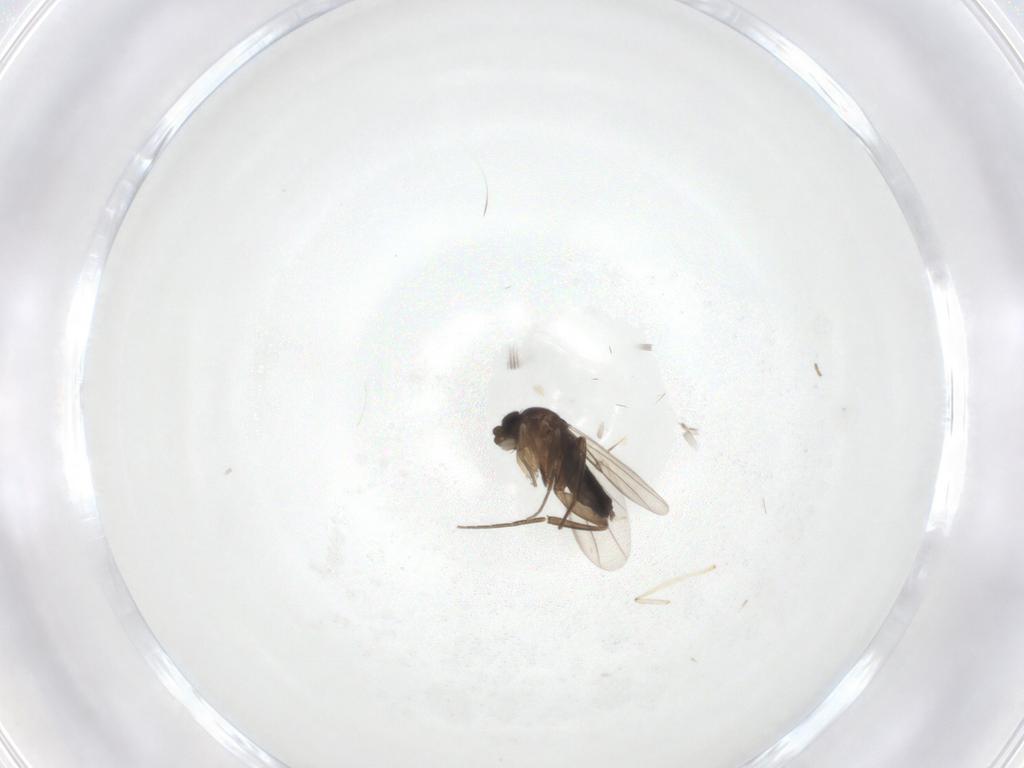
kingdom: Animalia
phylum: Arthropoda
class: Insecta
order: Diptera
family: Phoridae
